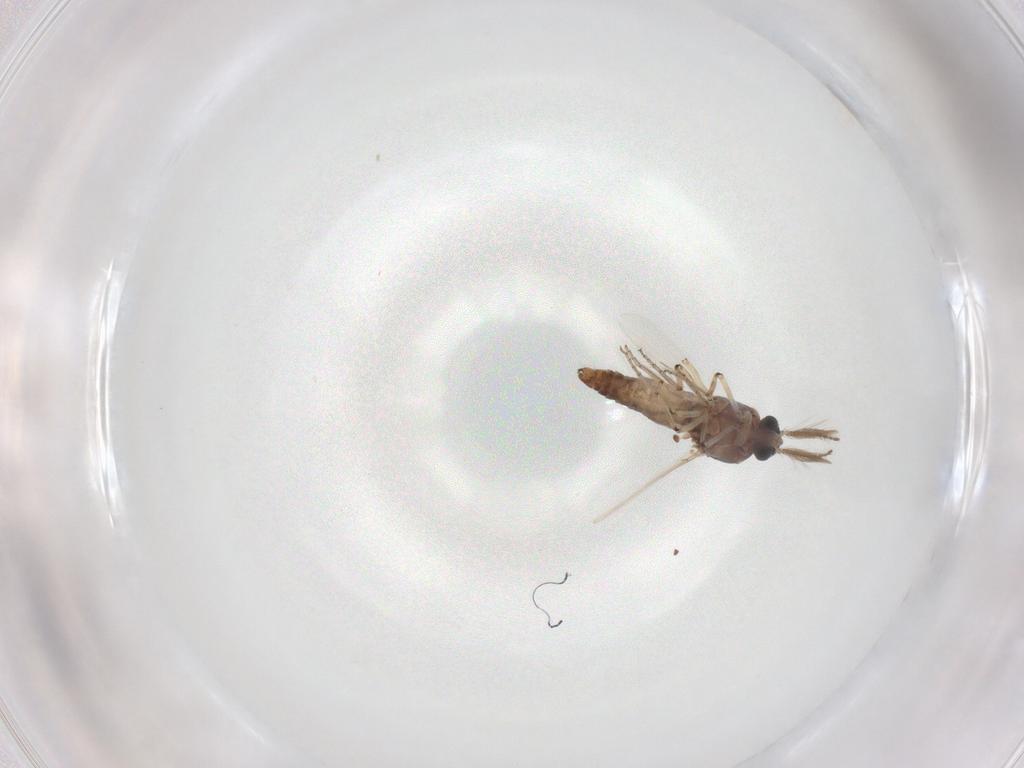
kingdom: Animalia
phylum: Arthropoda
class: Insecta
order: Diptera
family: Ceratopogonidae
